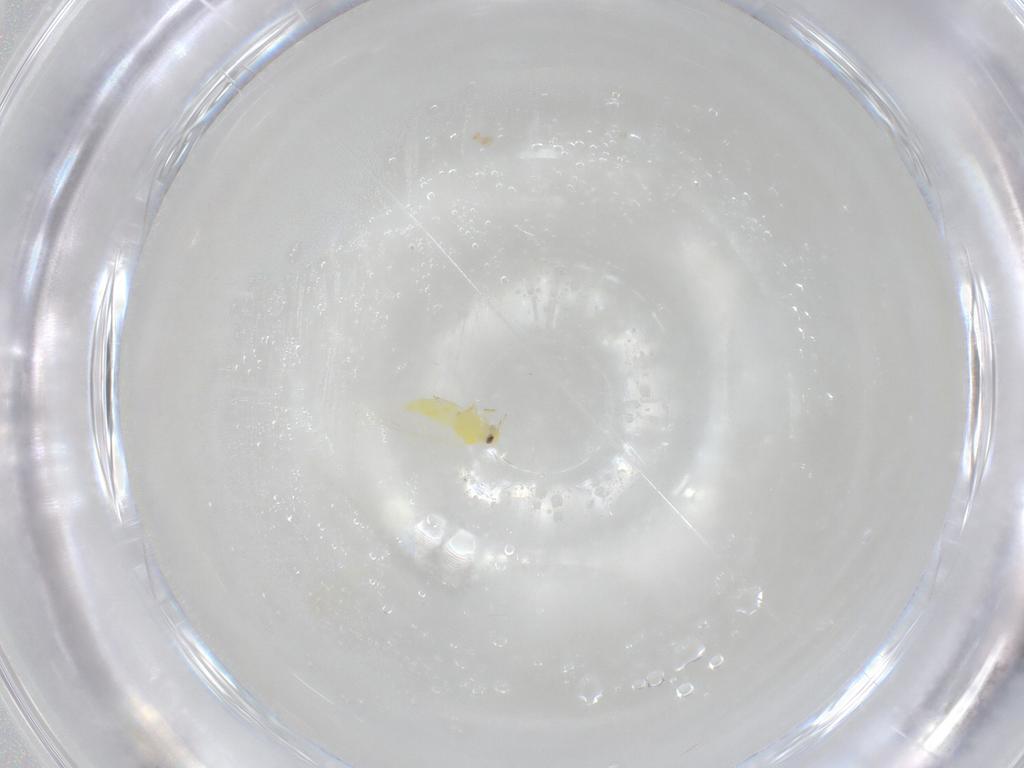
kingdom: Animalia
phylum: Arthropoda
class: Insecta
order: Hemiptera
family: Aleyrodidae
